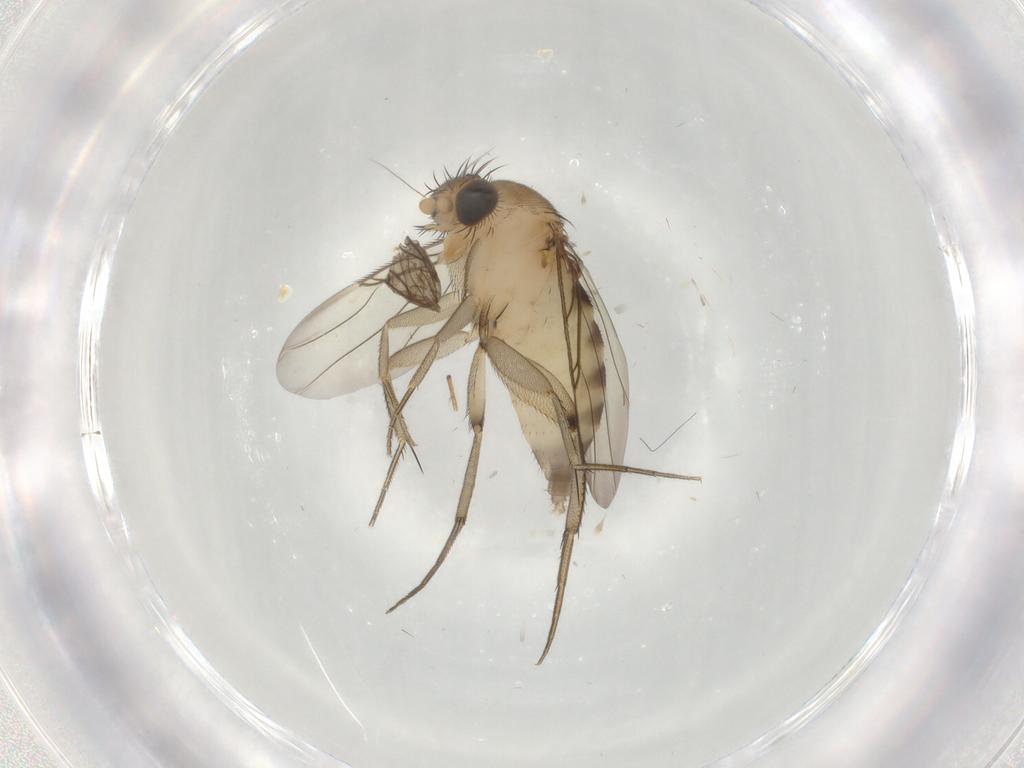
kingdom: Animalia
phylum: Arthropoda
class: Insecta
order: Diptera
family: Phoridae
